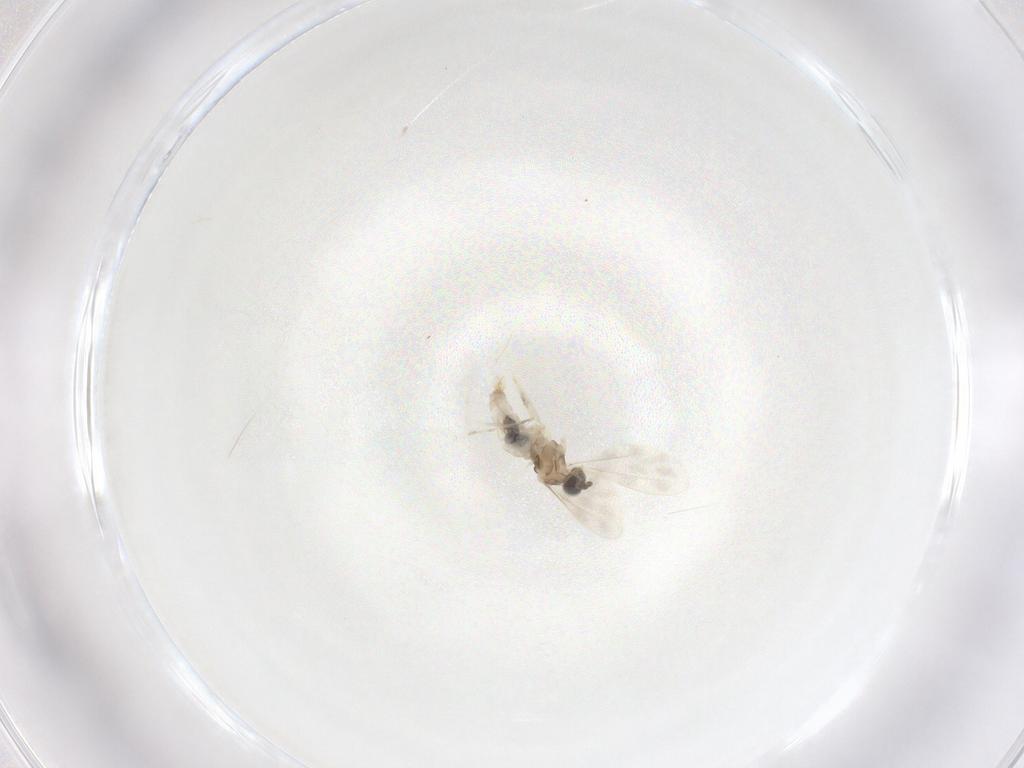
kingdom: Animalia
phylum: Arthropoda
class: Insecta
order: Diptera
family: Cecidomyiidae
